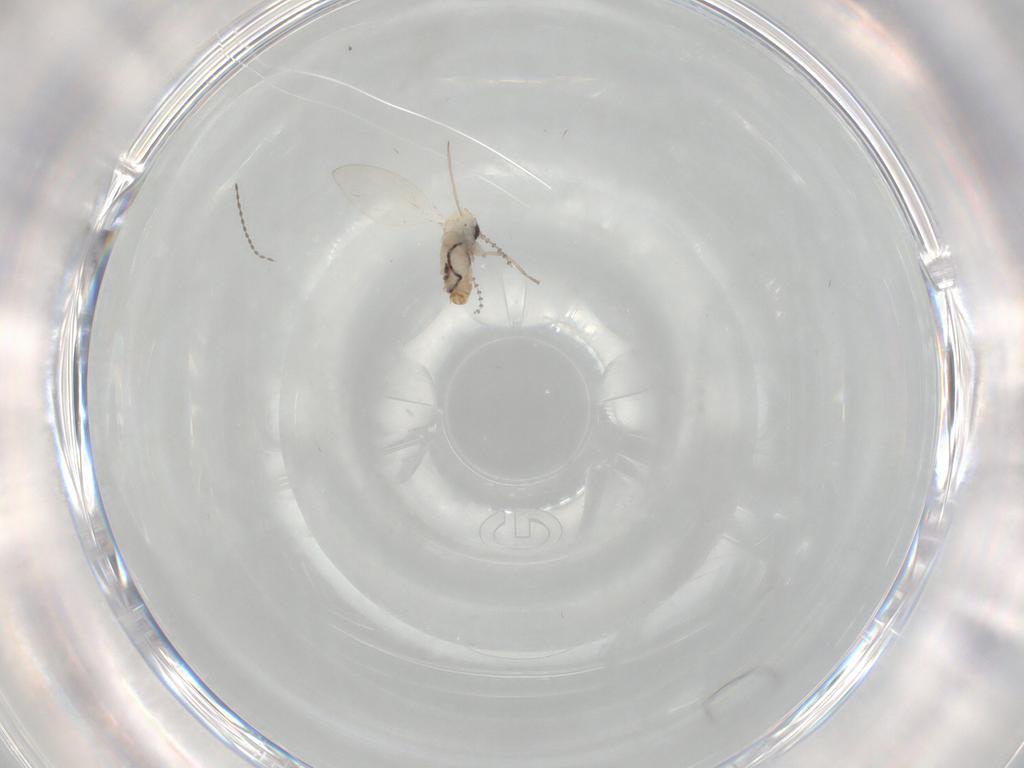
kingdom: Animalia
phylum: Arthropoda
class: Insecta
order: Diptera
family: Psychodidae
